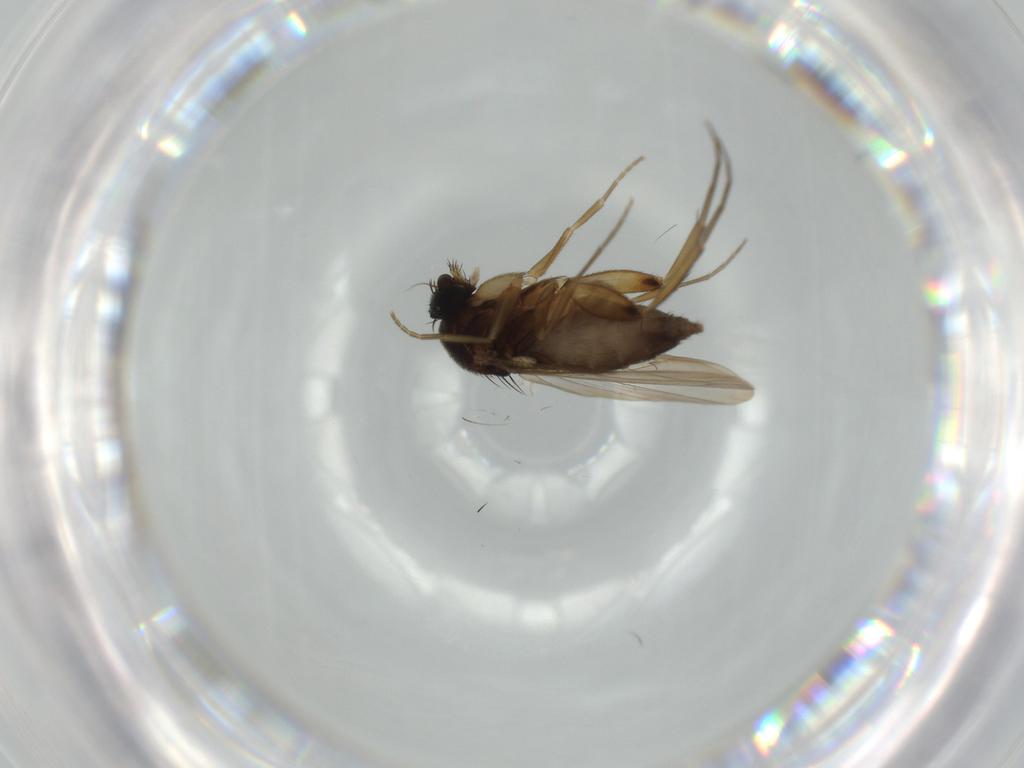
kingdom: Animalia
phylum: Arthropoda
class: Insecta
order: Diptera
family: Phoridae
